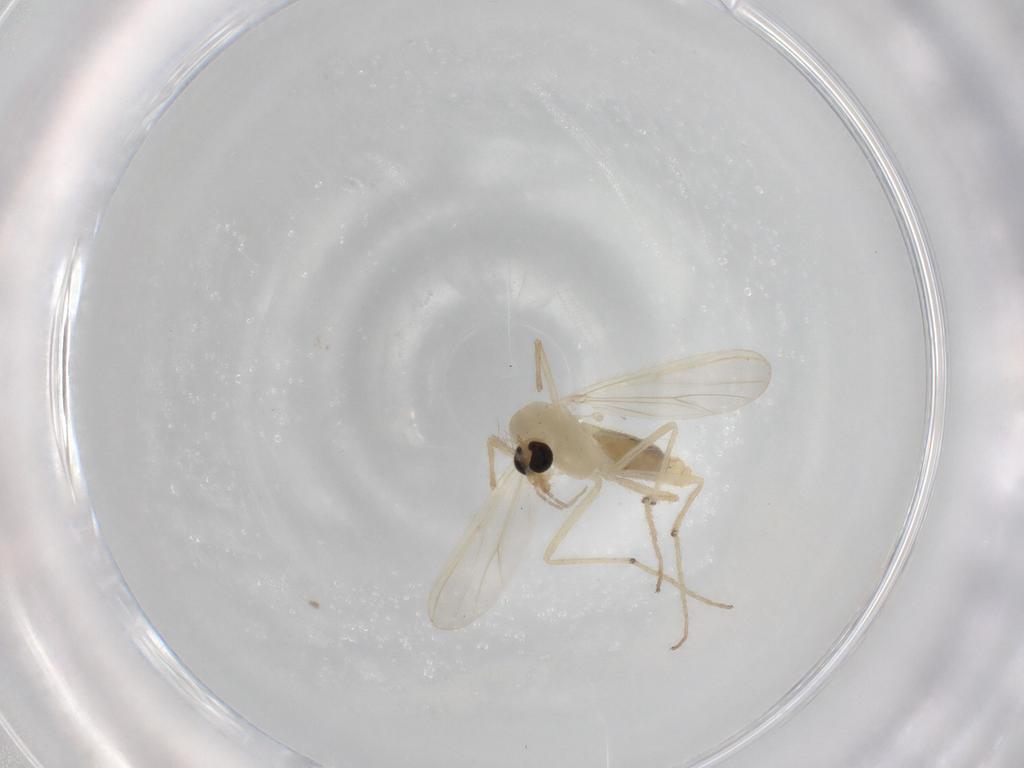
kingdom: Animalia
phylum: Arthropoda
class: Insecta
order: Diptera
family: Chironomidae
